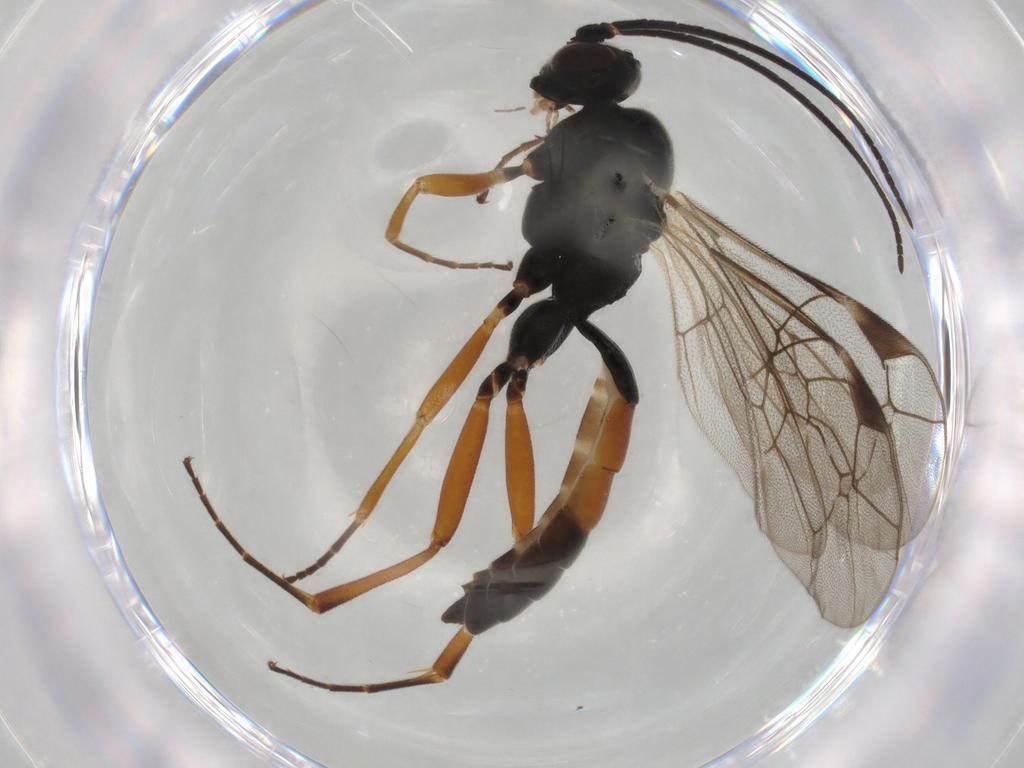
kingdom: Animalia
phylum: Arthropoda
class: Insecta
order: Hymenoptera
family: Formicidae
